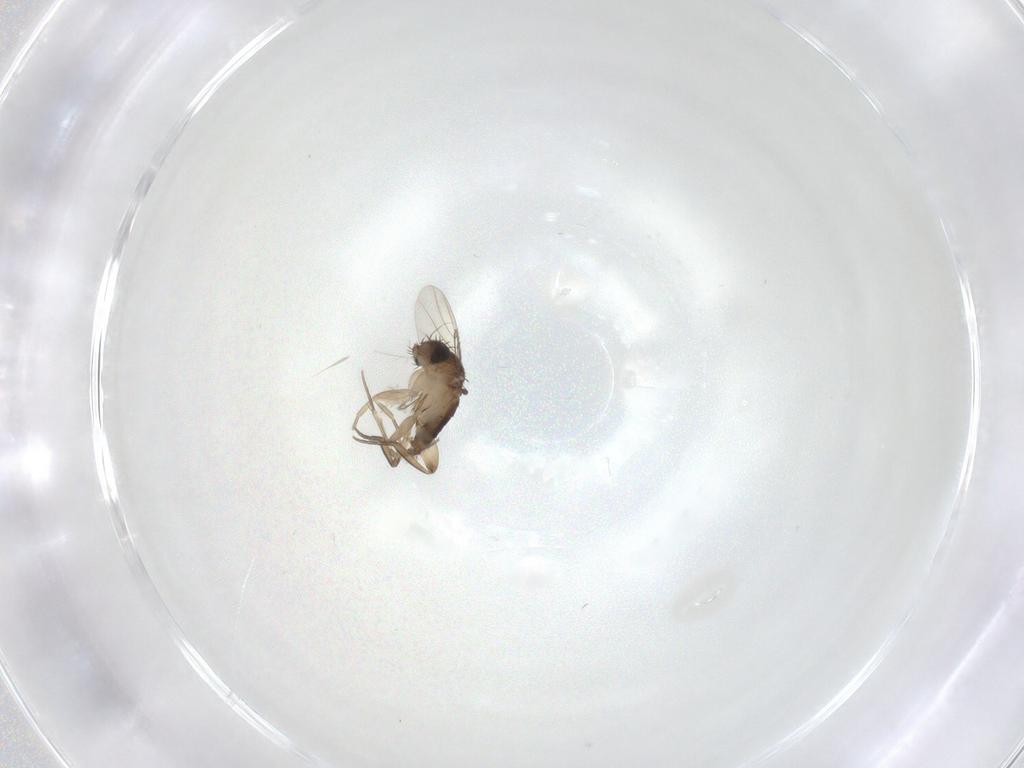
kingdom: Animalia
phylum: Arthropoda
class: Insecta
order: Diptera
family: Phoridae
